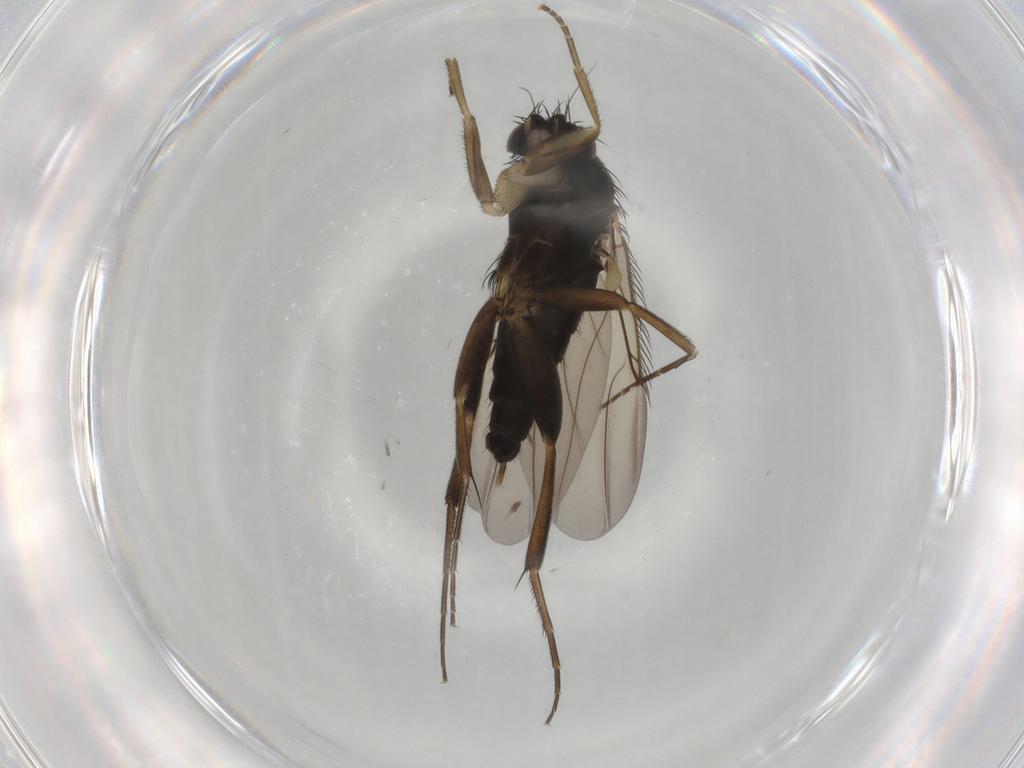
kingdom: Animalia
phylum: Arthropoda
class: Insecta
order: Diptera
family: Phoridae
